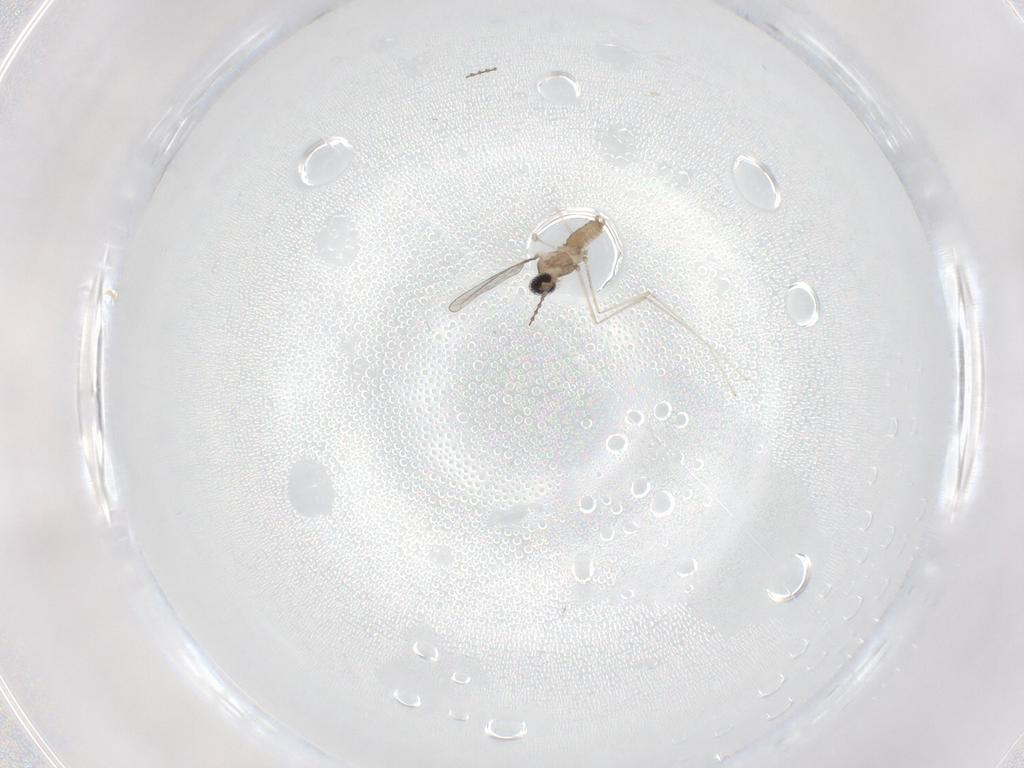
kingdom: Animalia
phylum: Arthropoda
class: Insecta
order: Diptera
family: Cecidomyiidae
